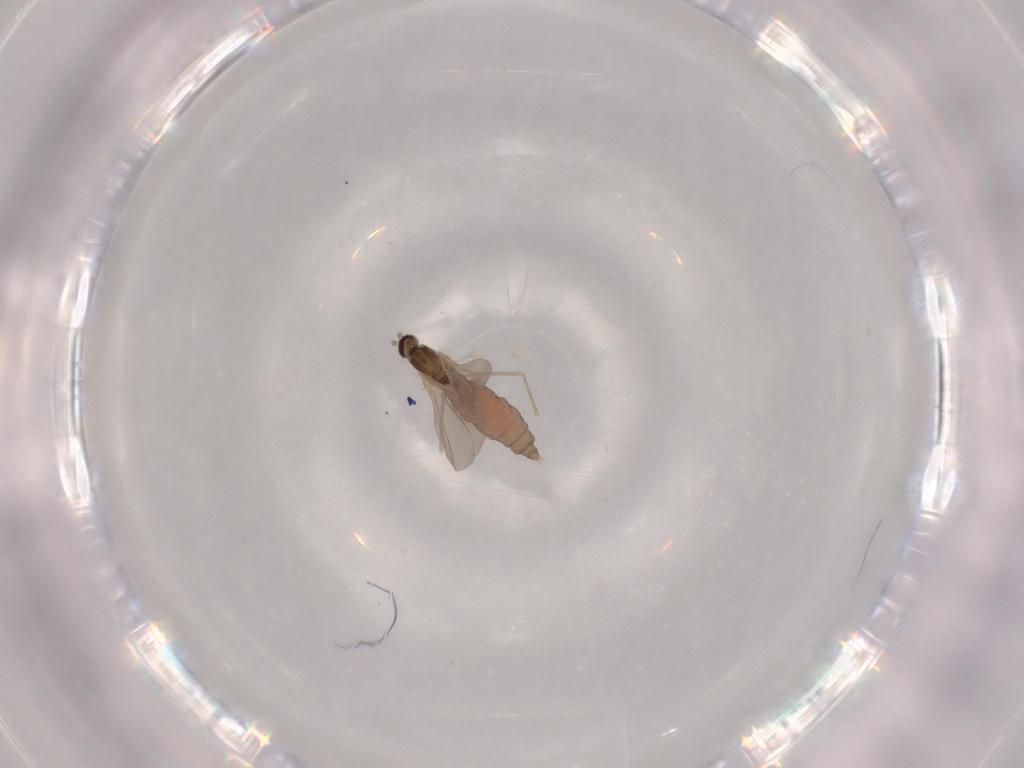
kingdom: Animalia
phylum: Arthropoda
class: Insecta
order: Diptera
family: Cecidomyiidae
